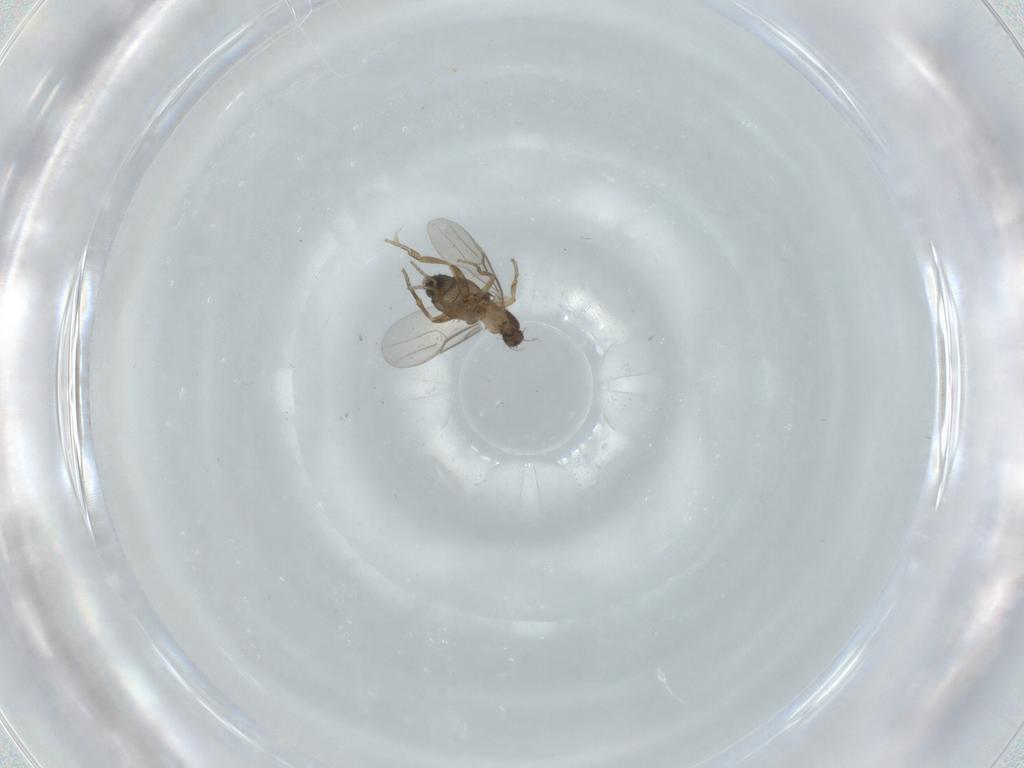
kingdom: Animalia
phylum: Arthropoda
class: Insecta
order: Diptera
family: Phoridae
